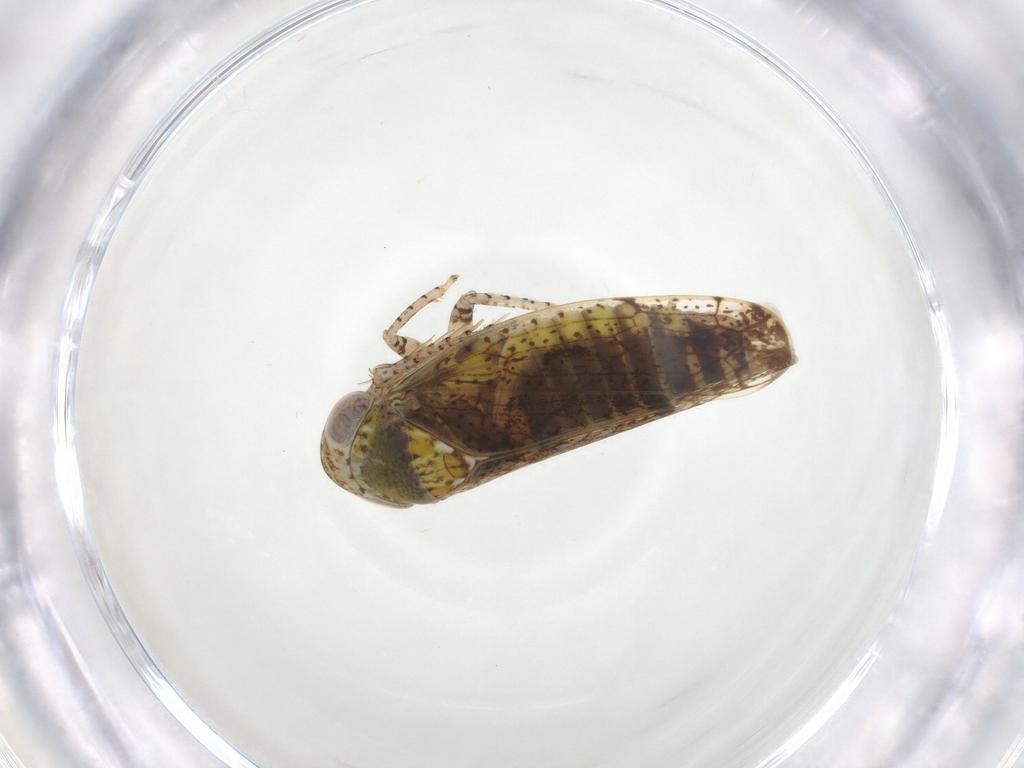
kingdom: Animalia
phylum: Arthropoda
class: Insecta
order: Hemiptera
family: Cicadellidae
